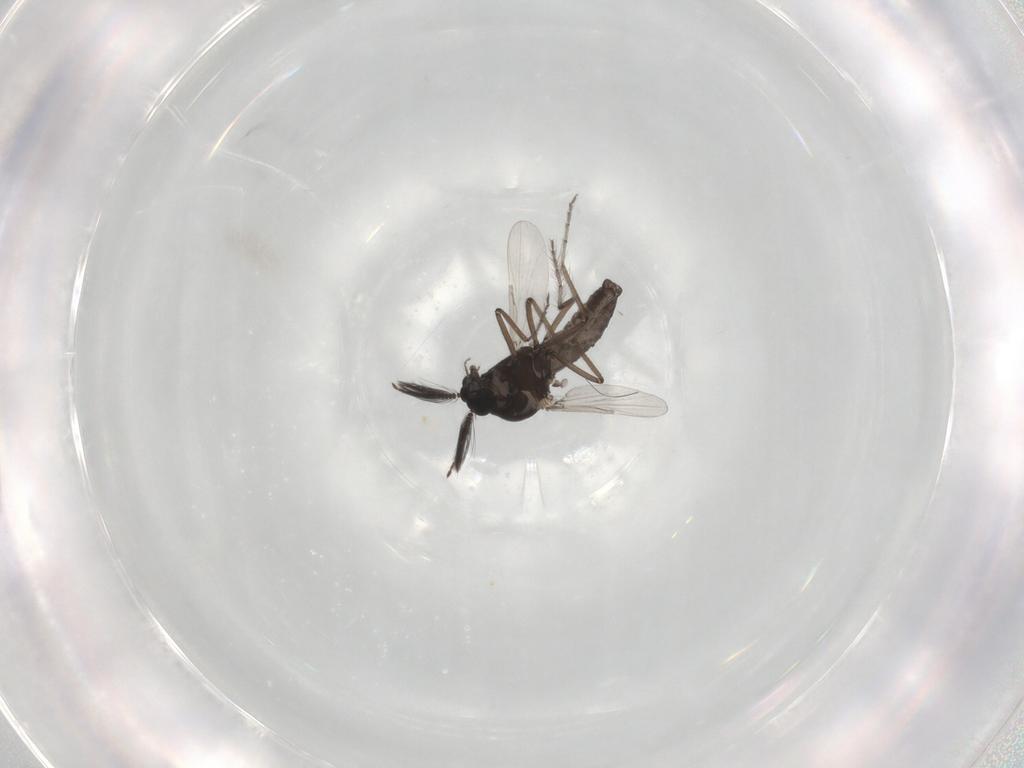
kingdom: Animalia
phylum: Arthropoda
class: Insecta
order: Diptera
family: Ceratopogonidae
